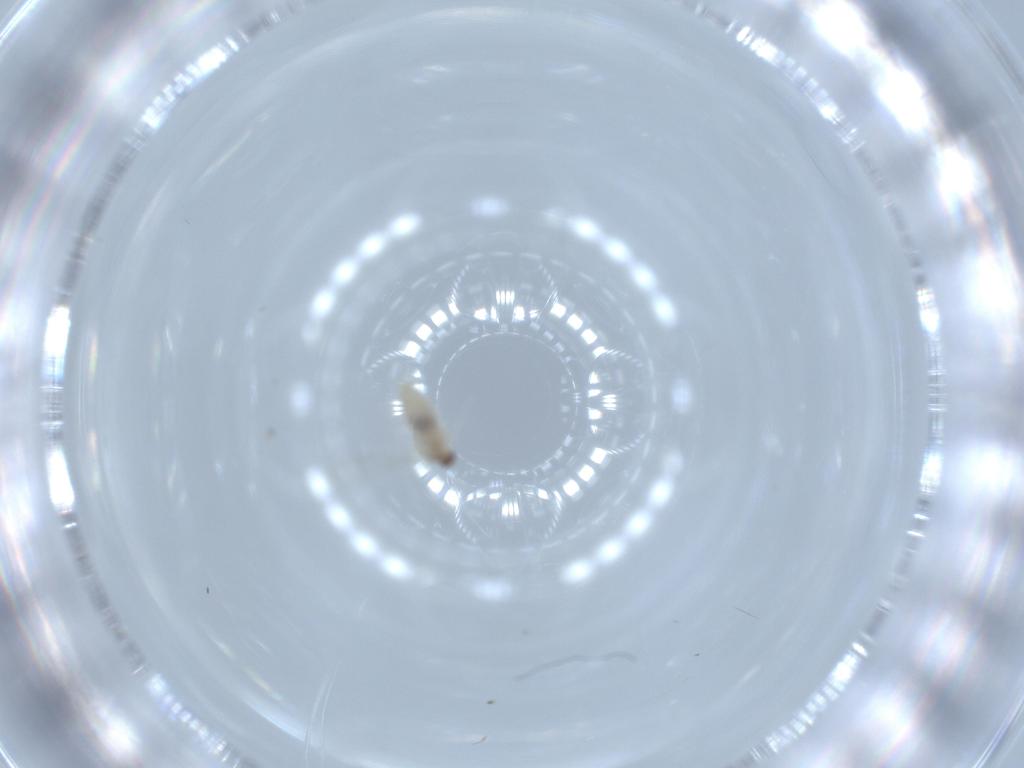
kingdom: Animalia
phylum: Arthropoda
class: Insecta
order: Diptera
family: Cecidomyiidae
